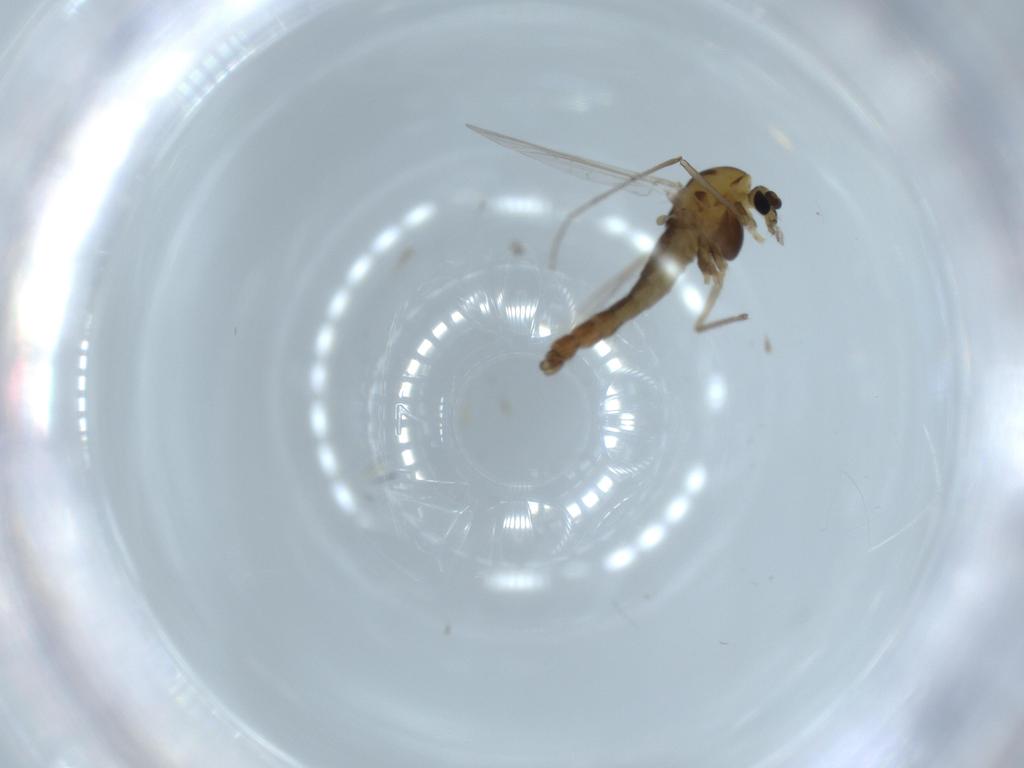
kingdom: Animalia
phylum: Arthropoda
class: Insecta
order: Diptera
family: Chironomidae
